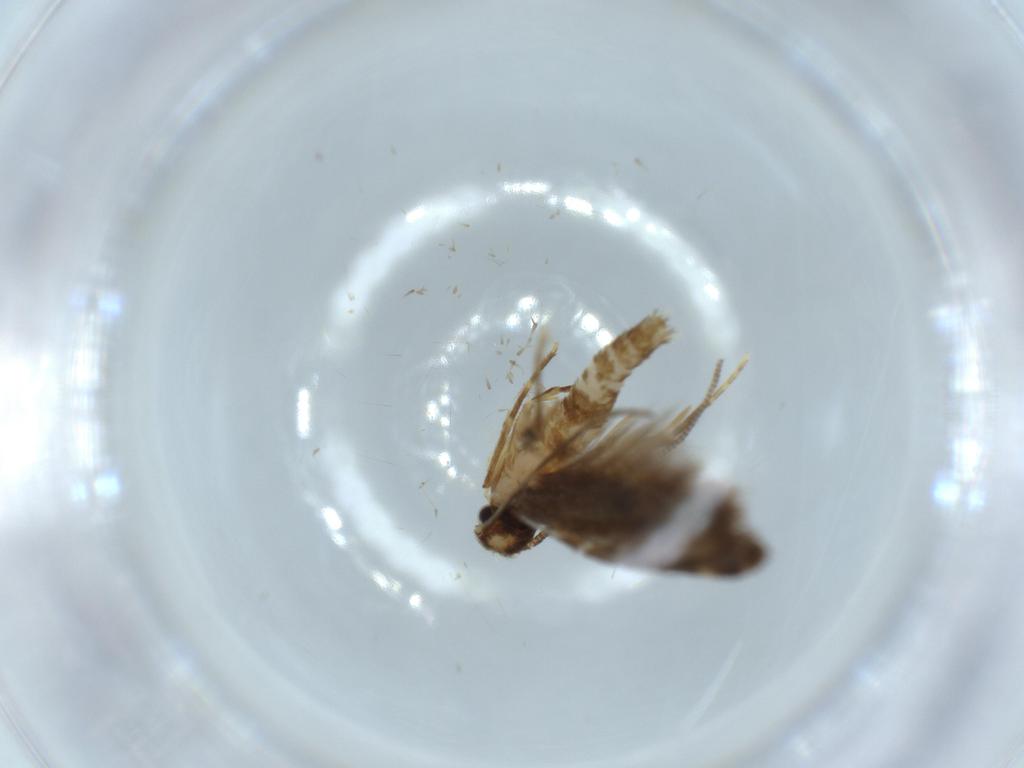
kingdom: Animalia
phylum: Arthropoda
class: Insecta
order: Lepidoptera
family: Tineidae
